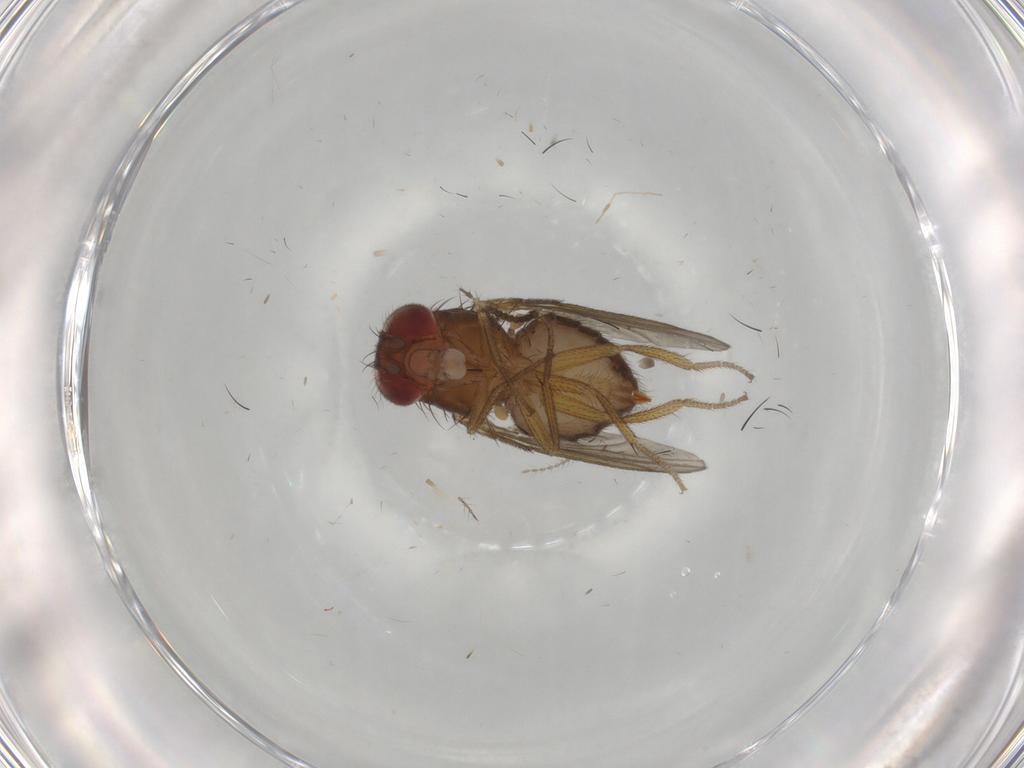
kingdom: Animalia
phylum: Arthropoda
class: Insecta
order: Diptera
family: Drosophilidae
